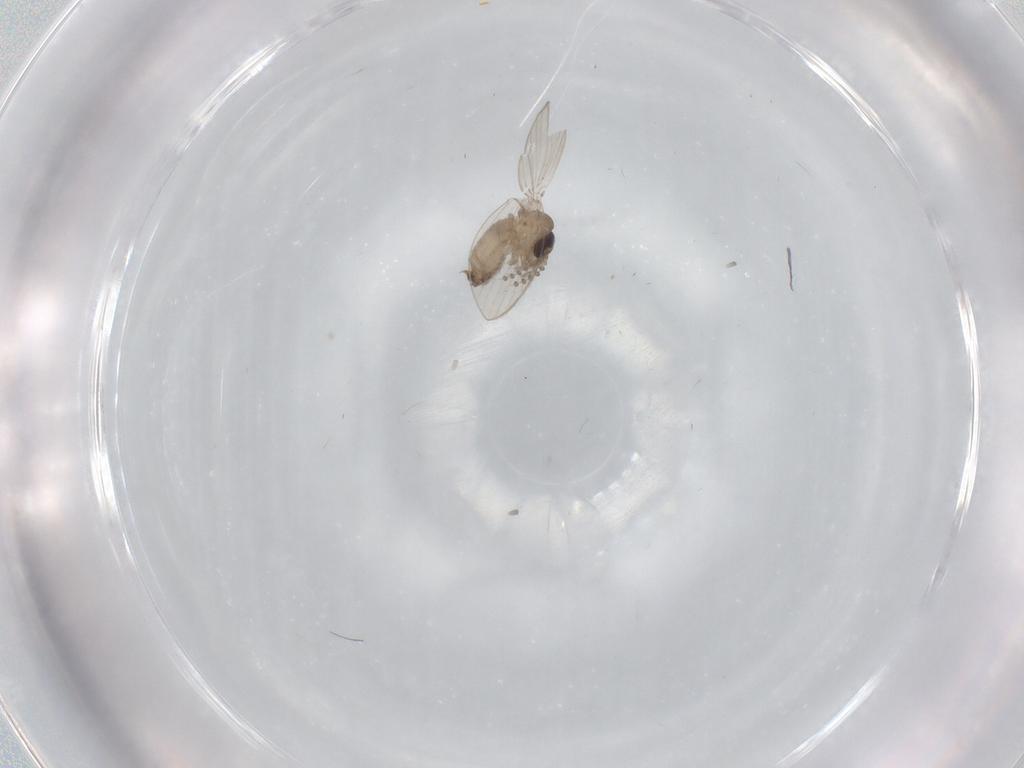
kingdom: Animalia
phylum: Arthropoda
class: Insecta
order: Diptera
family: Psychodidae
